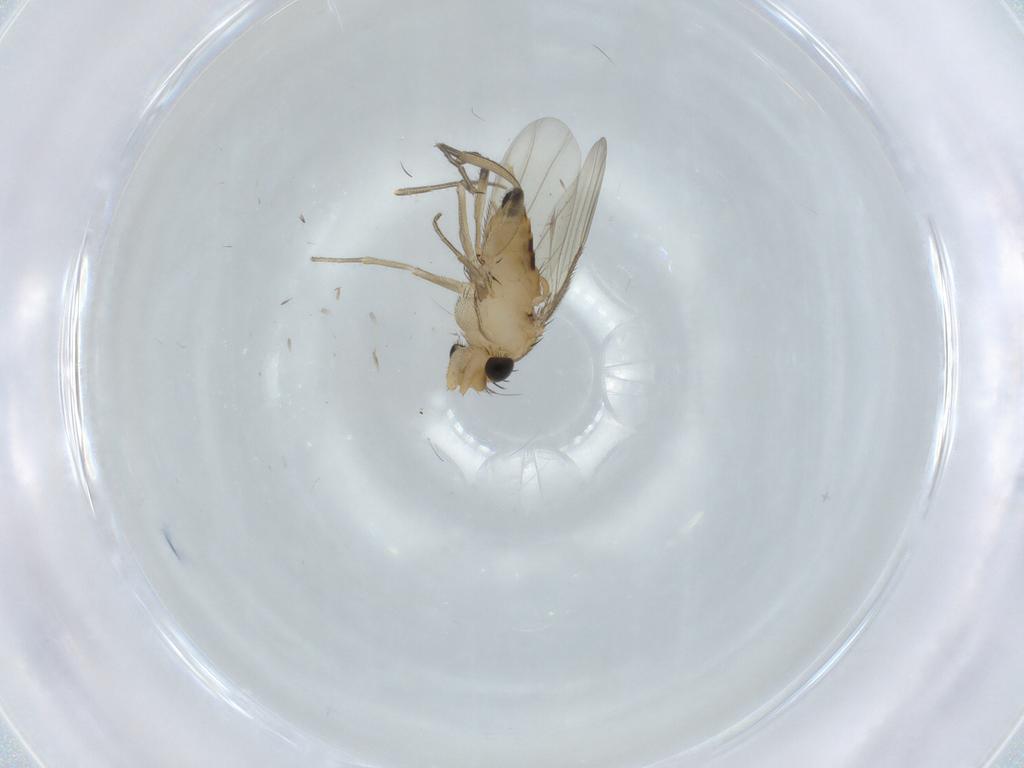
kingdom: Animalia
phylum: Arthropoda
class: Insecta
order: Diptera
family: Phoridae
